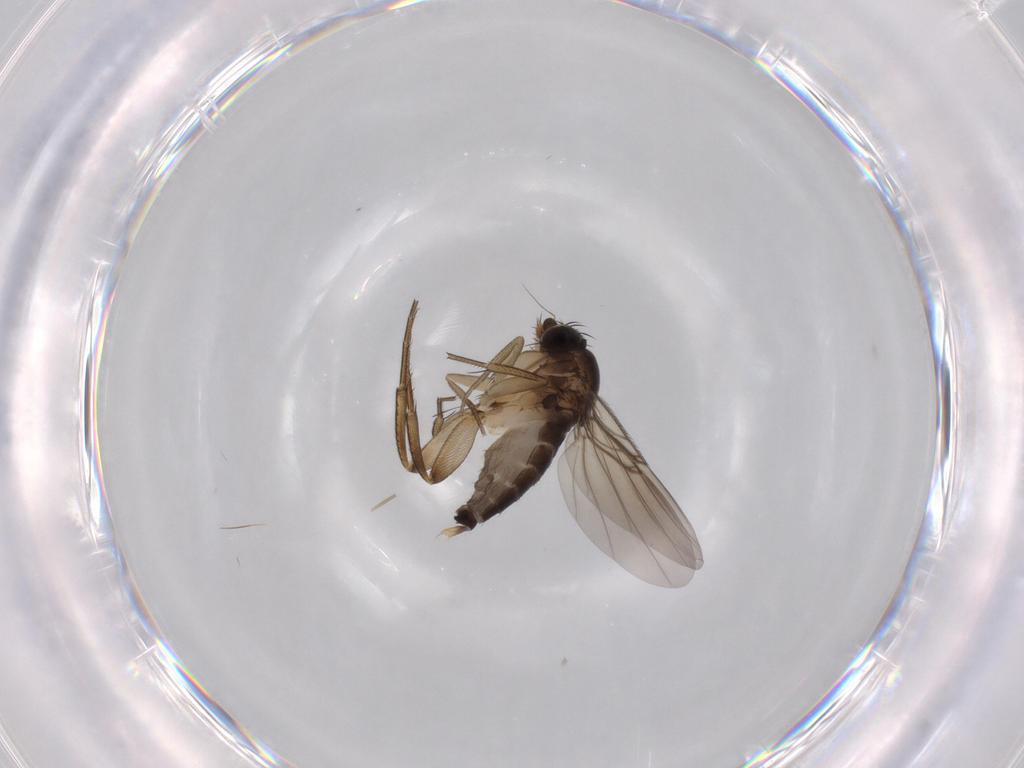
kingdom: Animalia
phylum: Arthropoda
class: Insecta
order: Diptera
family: Phoridae
